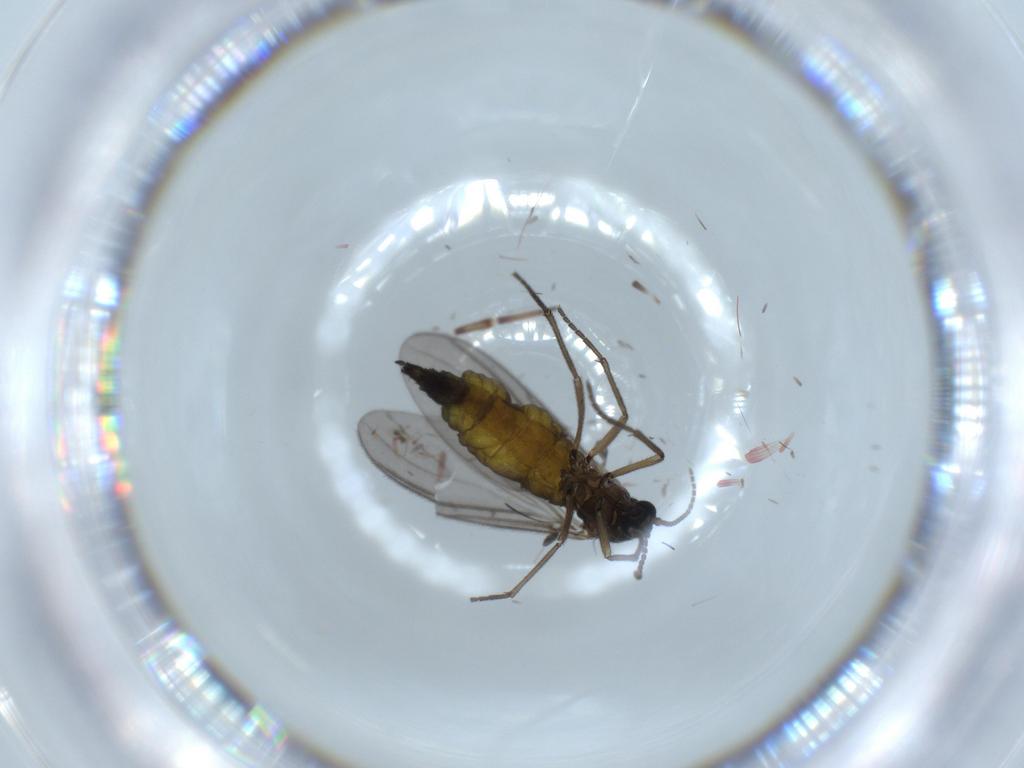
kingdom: Animalia
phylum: Arthropoda
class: Insecta
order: Diptera
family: Sciaridae
